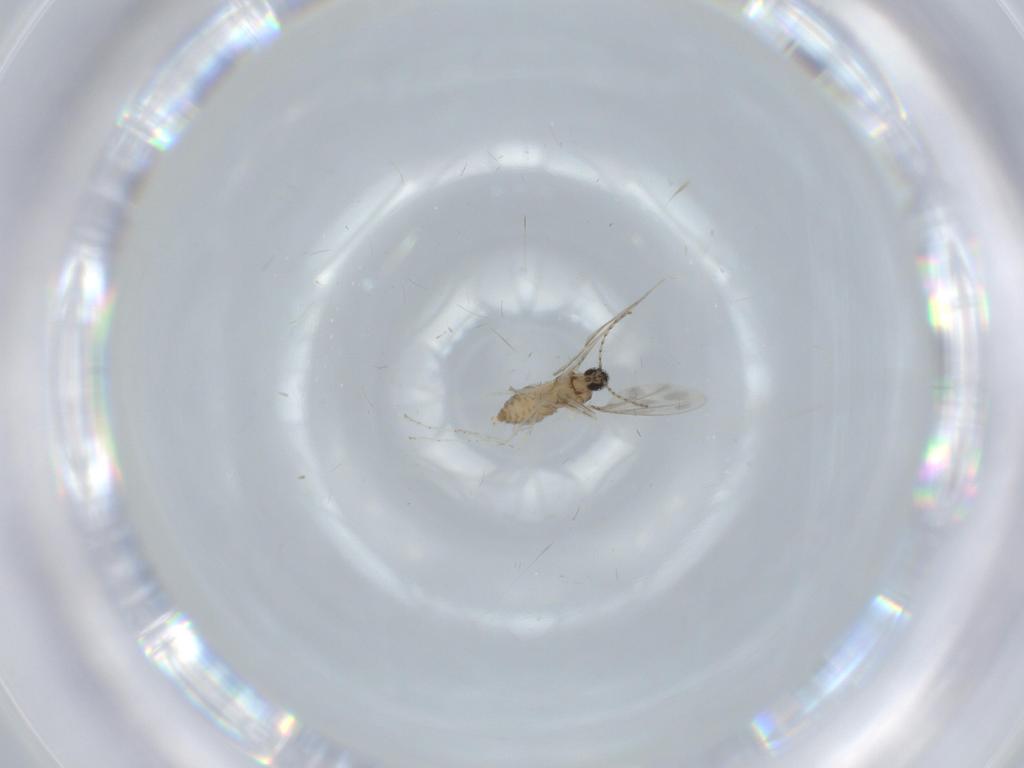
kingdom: Animalia
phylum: Arthropoda
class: Insecta
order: Diptera
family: Cecidomyiidae
